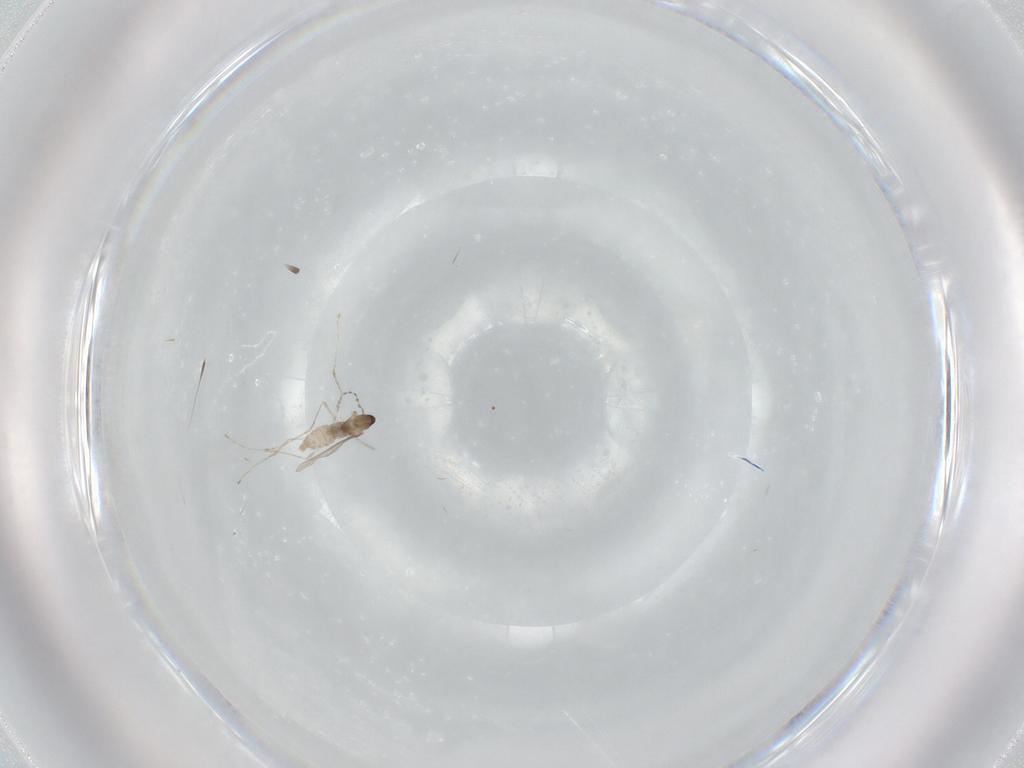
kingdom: Animalia
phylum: Arthropoda
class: Insecta
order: Diptera
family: Cecidomyiidae
